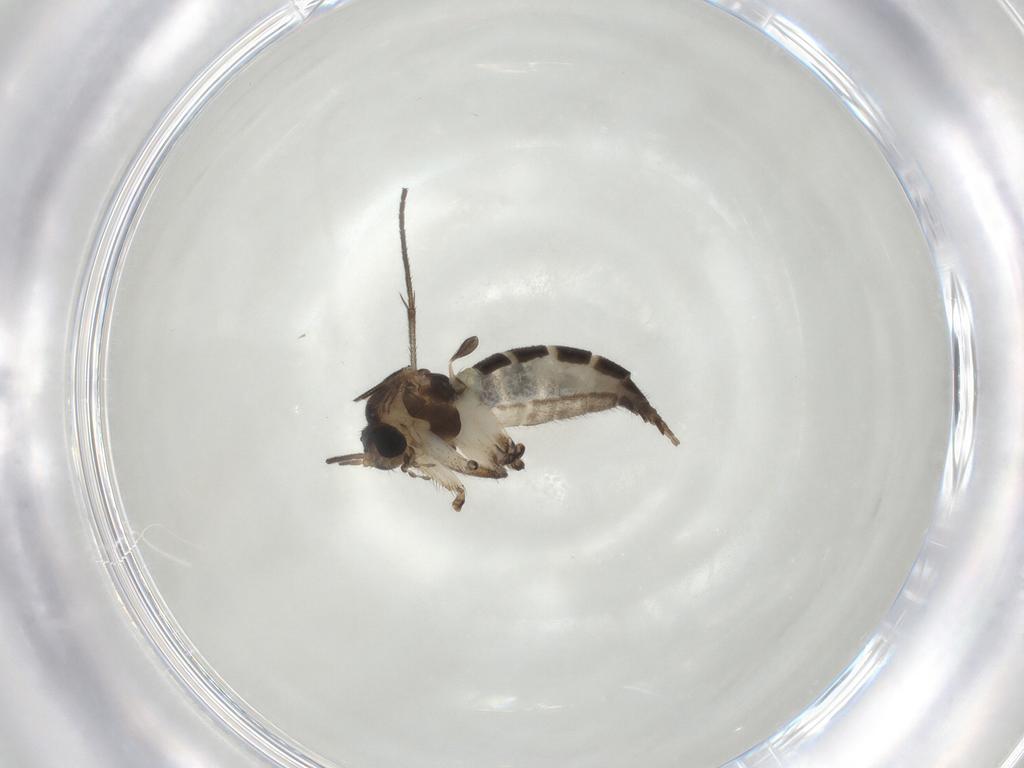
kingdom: Animalia
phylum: Arthropoda
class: Insecta
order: Diptera
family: Sciaridae
